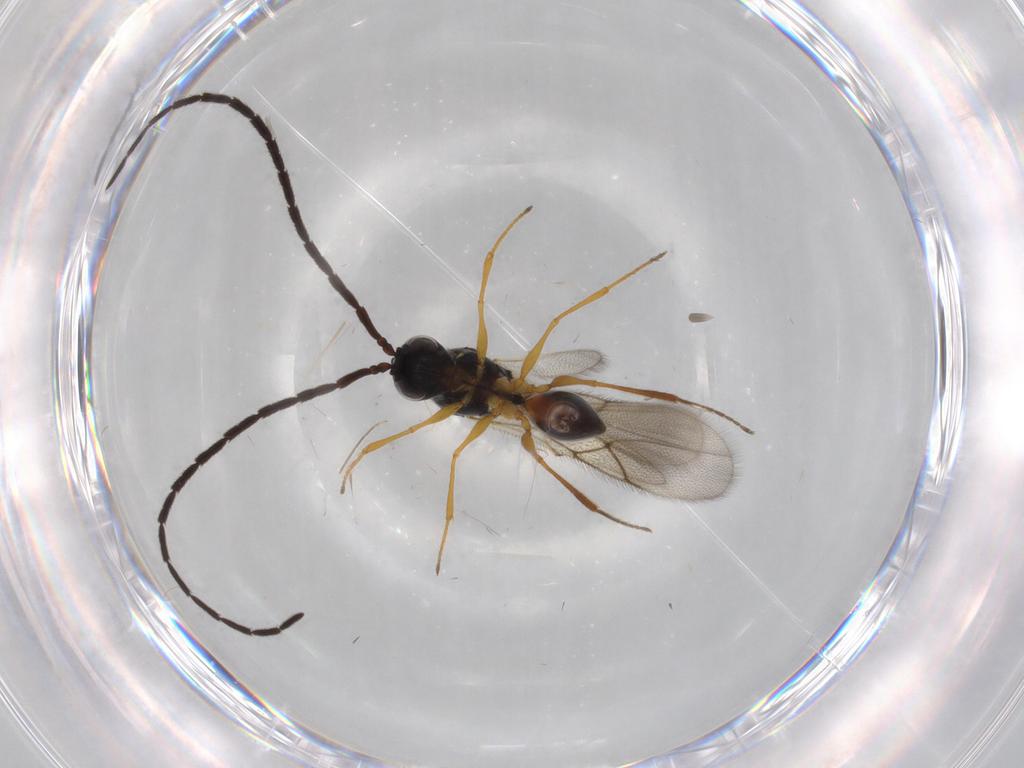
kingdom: Animalia
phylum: Arthropoda
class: Insecta
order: Hymenoptera
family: Figitidae
